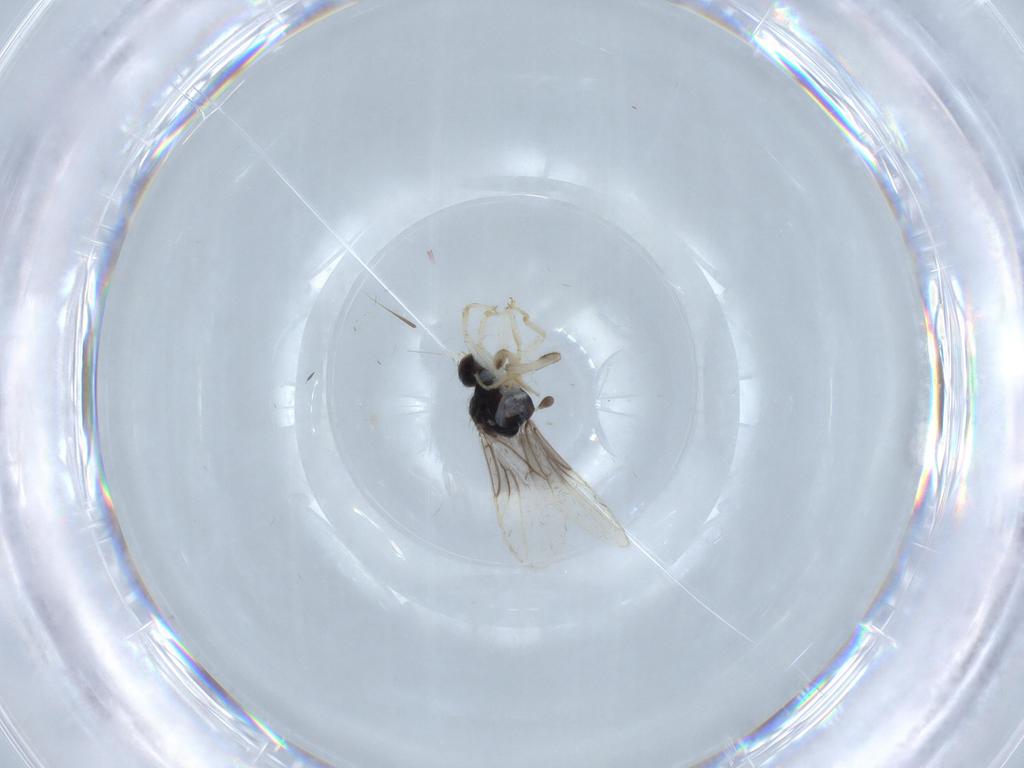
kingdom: Animalia
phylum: Arthropoda
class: Insecta
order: Diptera
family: Hybotidae
